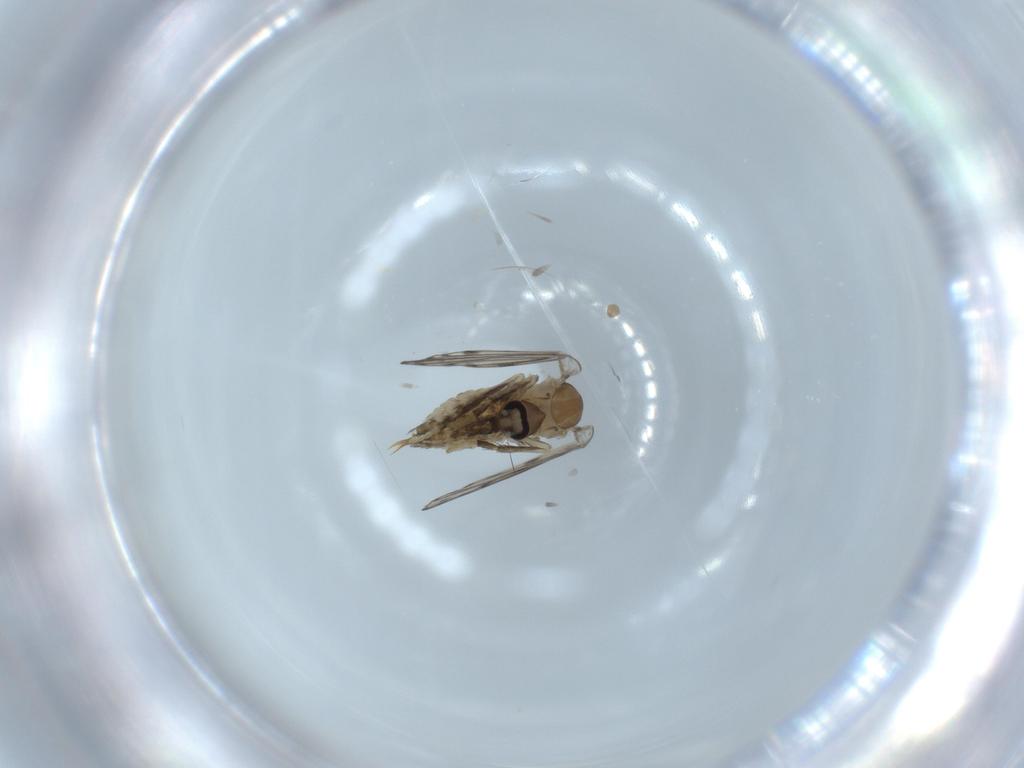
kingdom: Animalia
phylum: Arthropoda
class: Insecta
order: Diptera
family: Psychodidae
